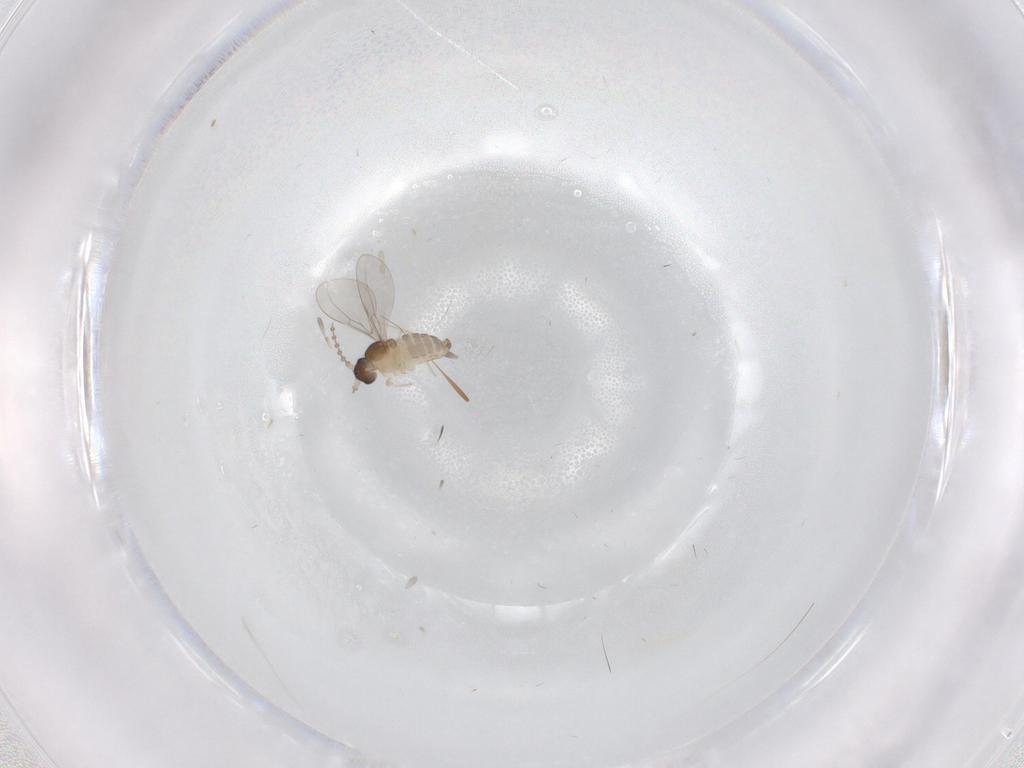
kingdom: Animalia
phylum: Arthropoda
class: Insecta
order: Diptera
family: Cecidomyiidae
